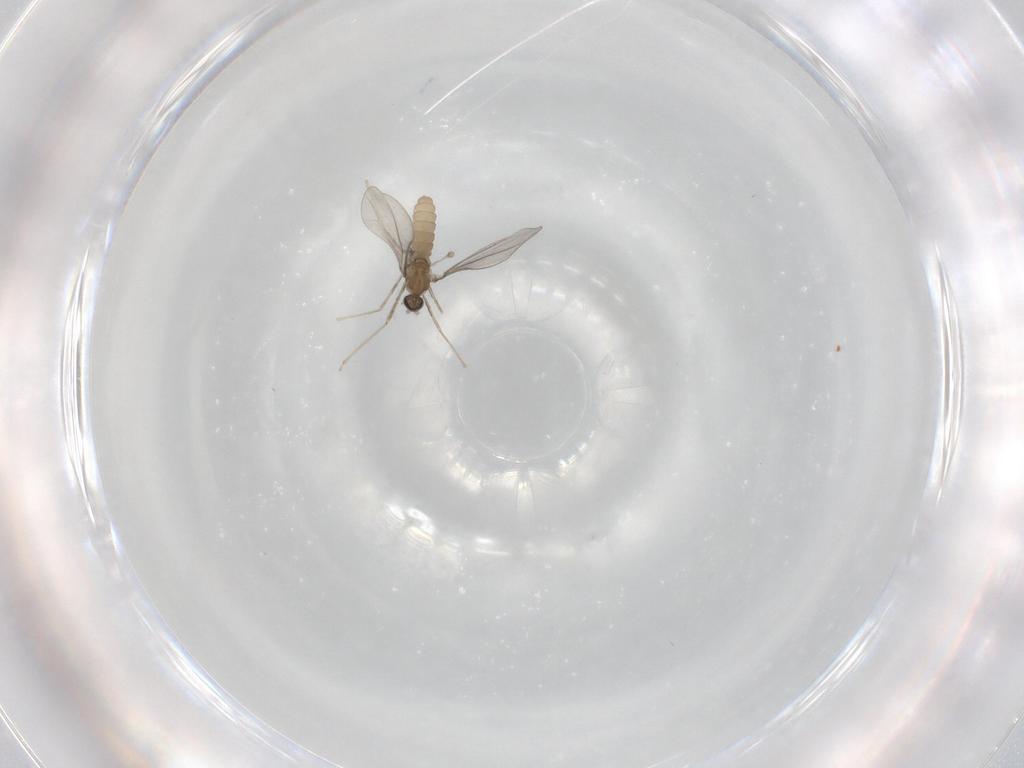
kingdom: Animalia
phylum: Arthropoda
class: Insecta
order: Diptera
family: Cecidomyiidae
